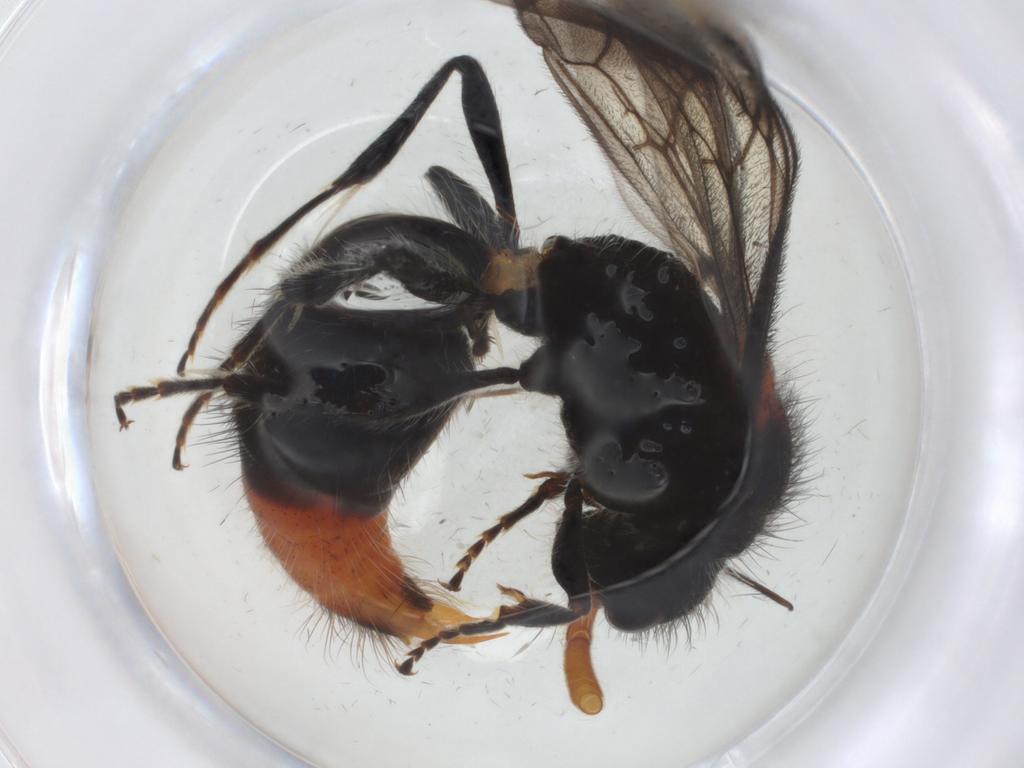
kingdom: Animalia
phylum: Arthropoda
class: Insecta
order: Hymenoptera
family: Mutillidae
